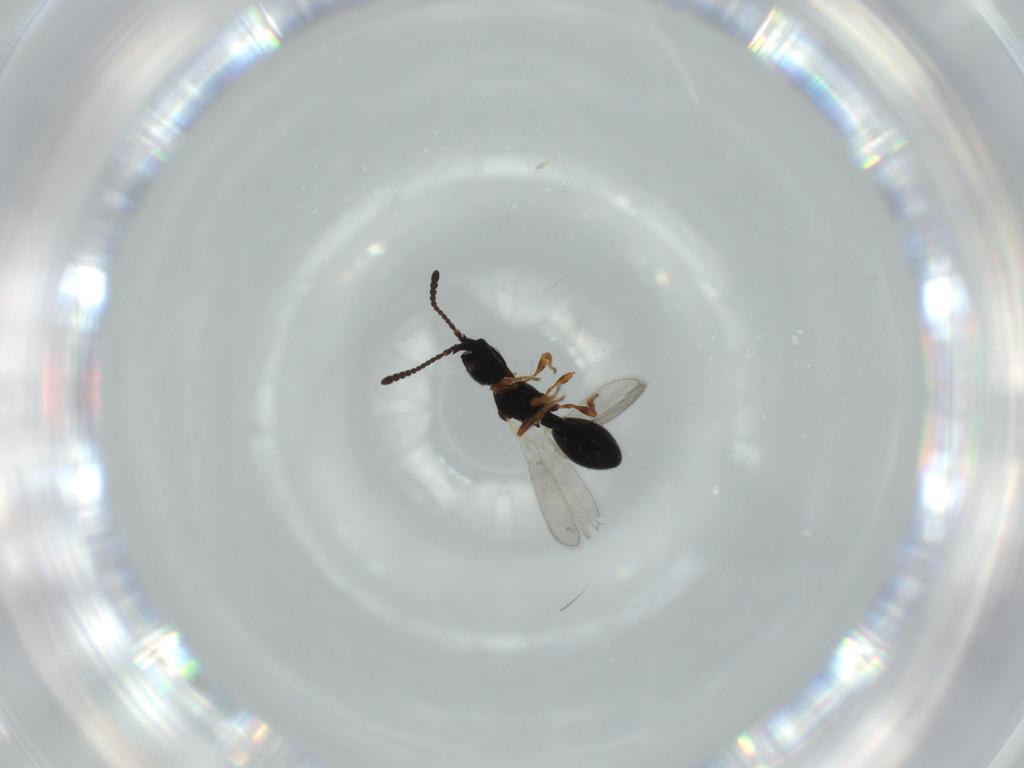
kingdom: Animalia
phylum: Arthropoda
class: Insecta
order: Hymenoptera
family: Diapriidae
